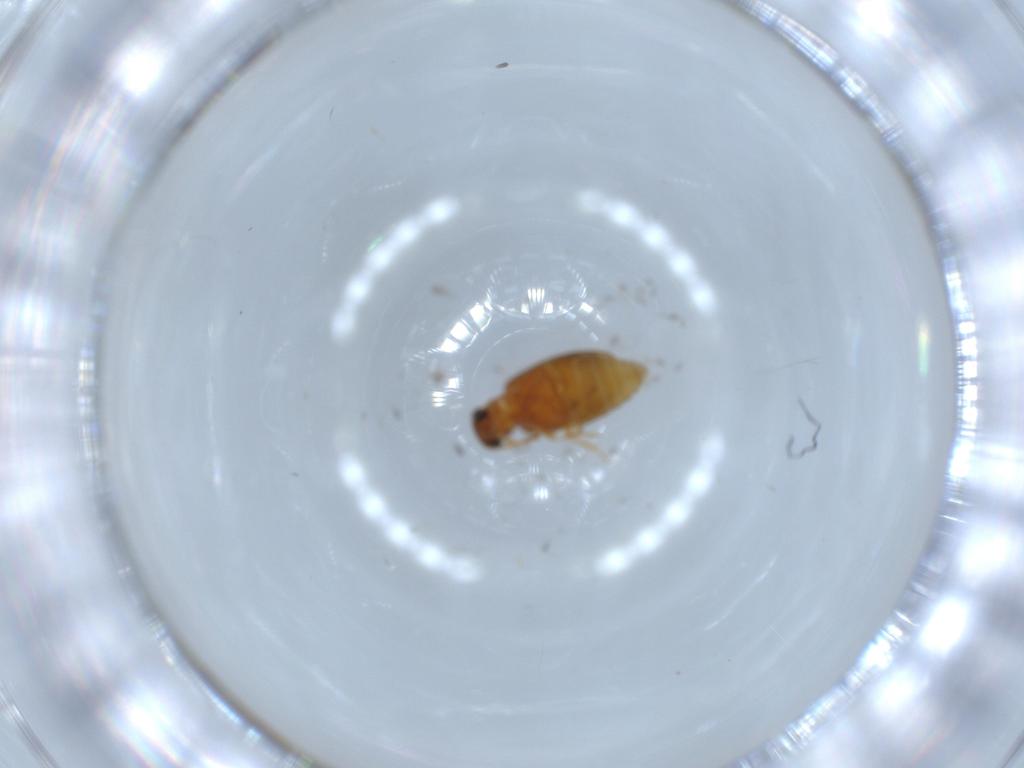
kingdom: Animalia
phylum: Arthropoda
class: Insecta
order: Coleoptera
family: Aderidae
